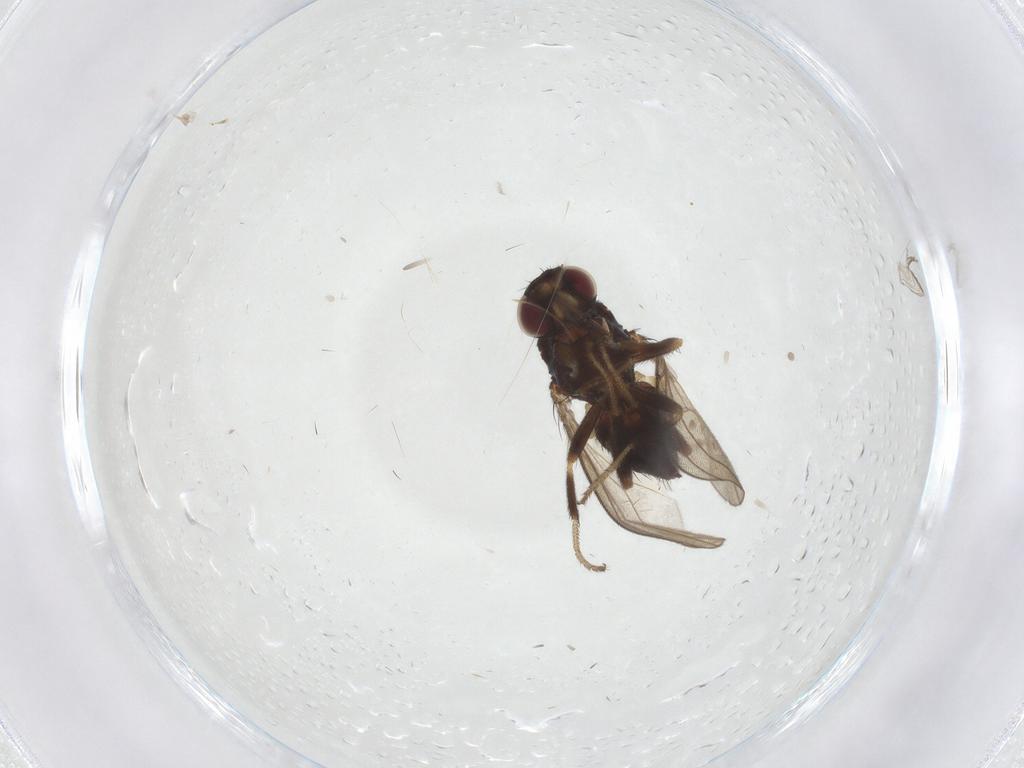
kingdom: Animalia
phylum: Arthropoda
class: Insecta
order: Diptera
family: Milichiidae
